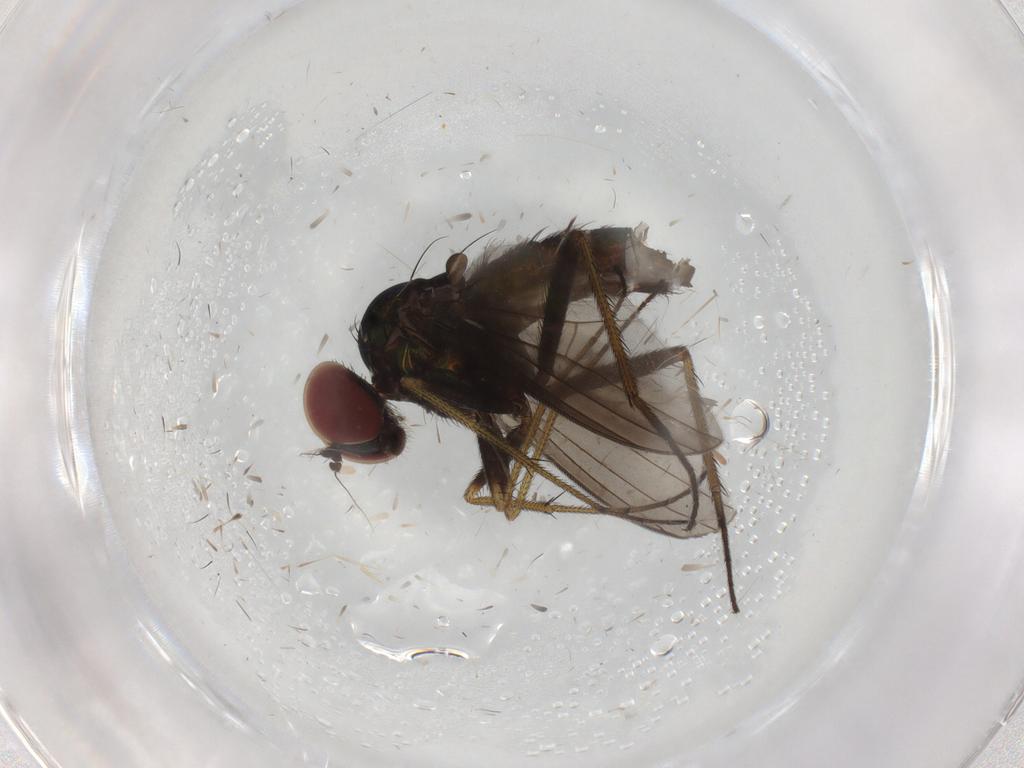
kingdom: Animalia
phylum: Arthropoda
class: Insecta
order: Diptera
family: Dolichopodidae
